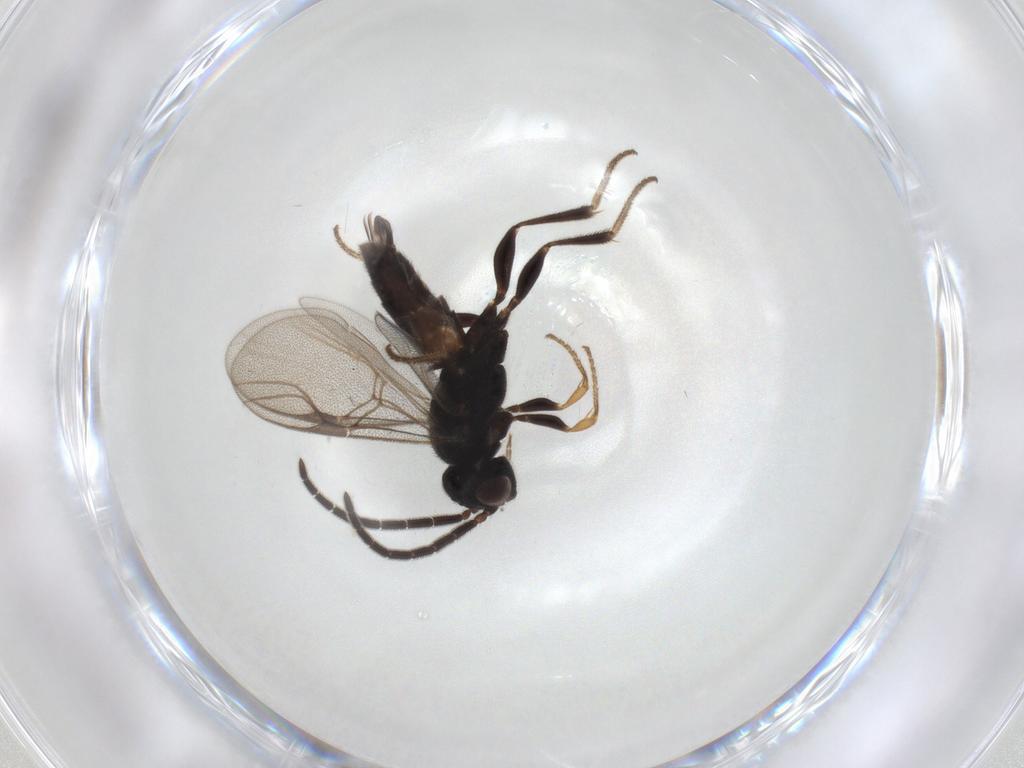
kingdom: Animalia
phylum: Arthropoda
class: Insecta
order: Hymenoptera
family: Dryinidae
